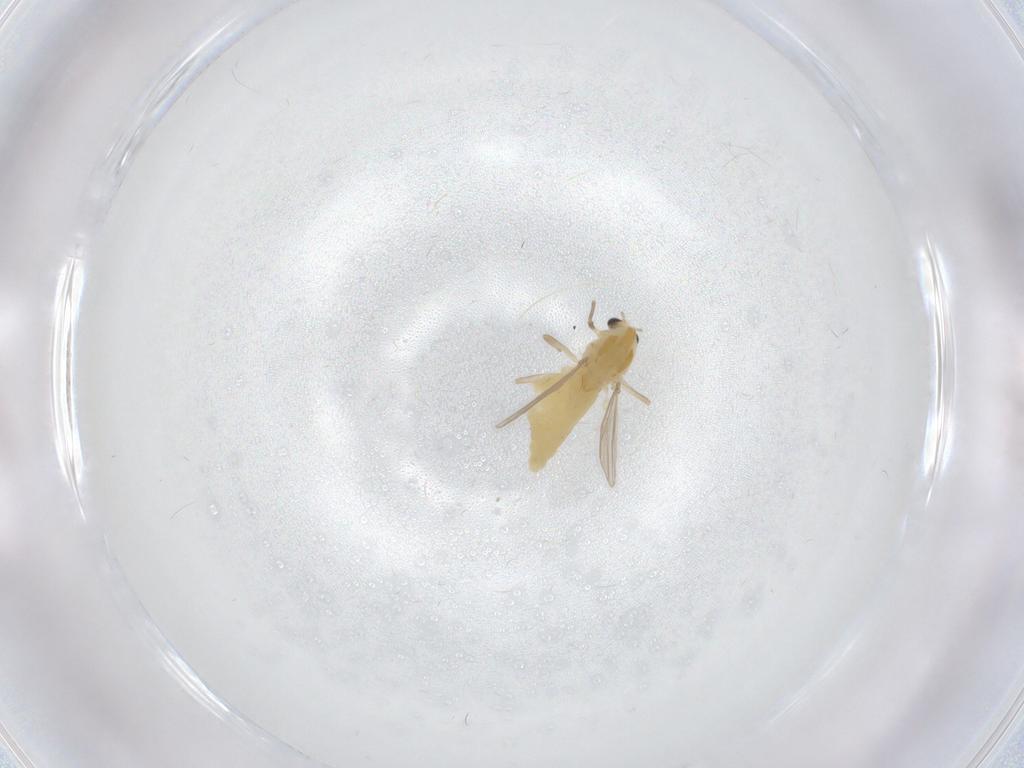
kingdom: Animalia
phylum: Arthropoda
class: Insecta
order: Diptera
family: Chironomidae
